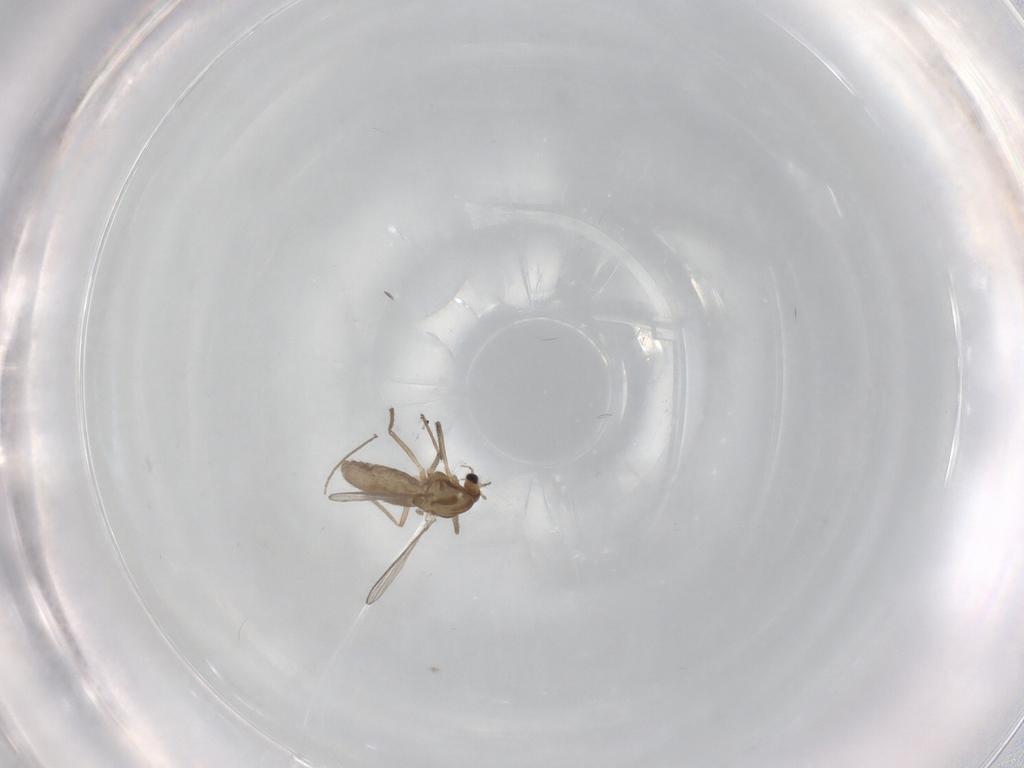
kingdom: Animalia
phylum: Arthropoda
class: Insecta
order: Diptera
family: Chironomidae
